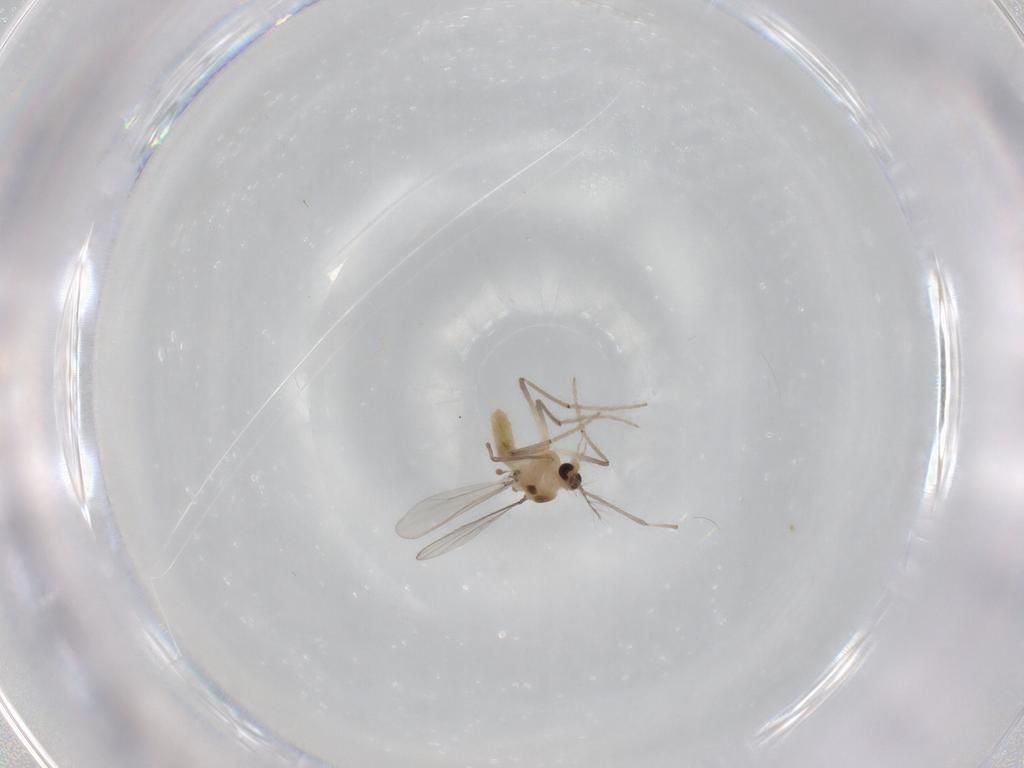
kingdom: Animalia
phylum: Arthropoda
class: Insecta
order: Diptera
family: Chironomidae
